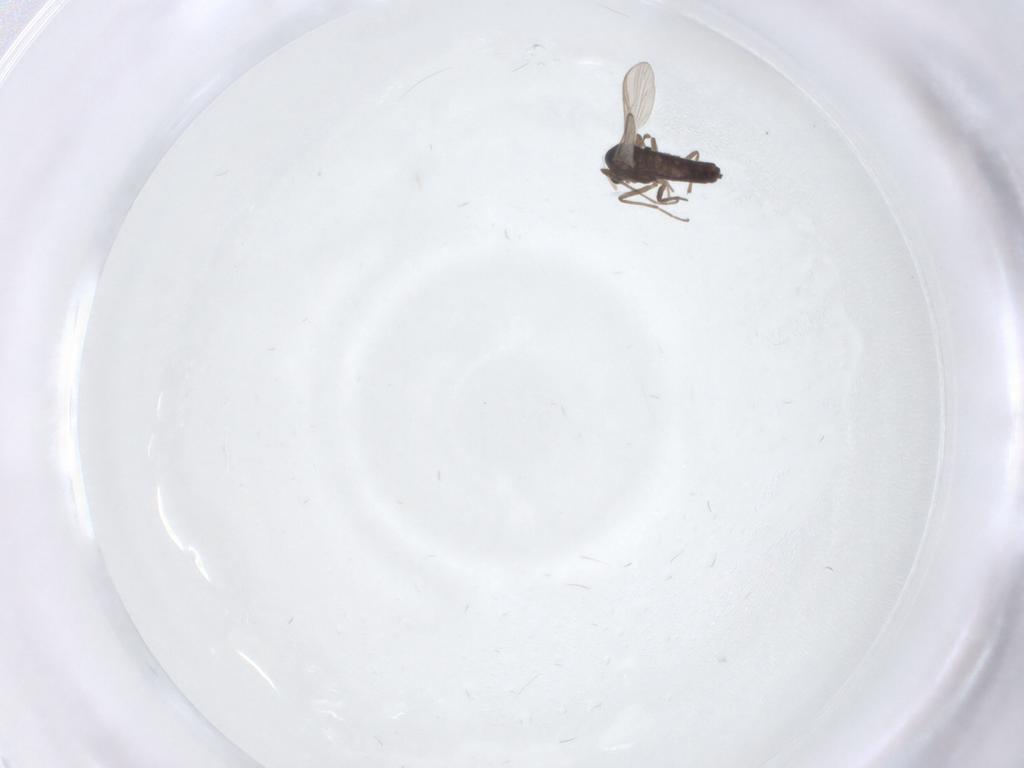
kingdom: Animalia
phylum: Arthropoda
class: Insecta
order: Diptera
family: Chironomidae
